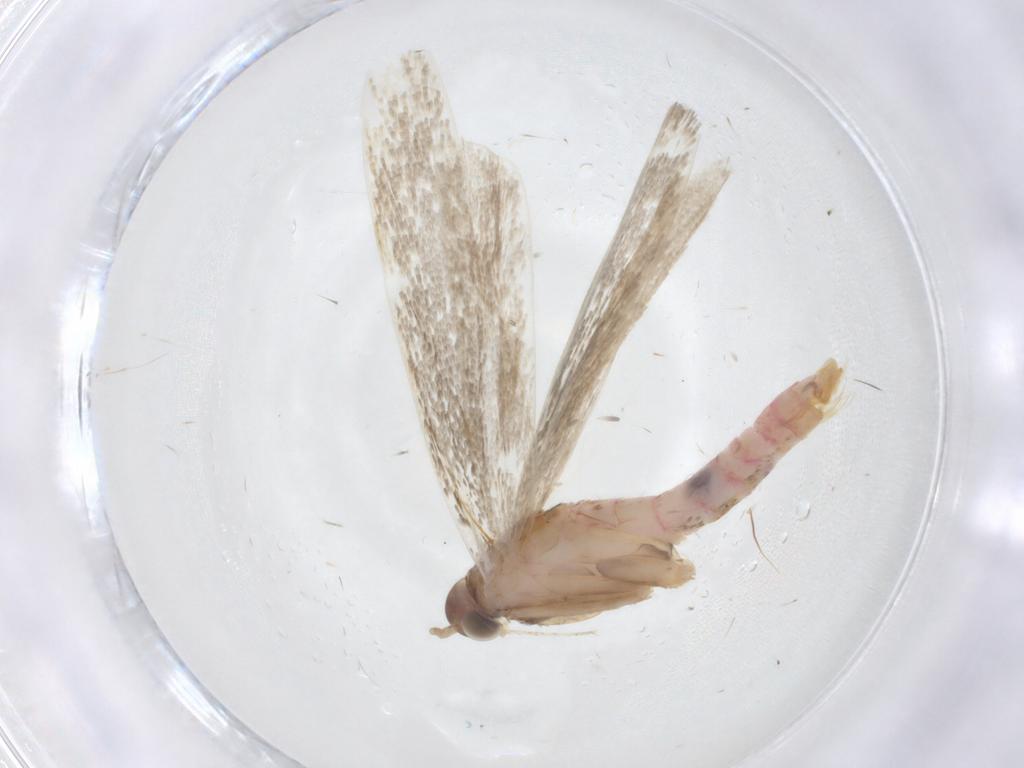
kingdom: Animalia
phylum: Arthropoda
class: Insecta
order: Lepidoptera
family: Crambidae
